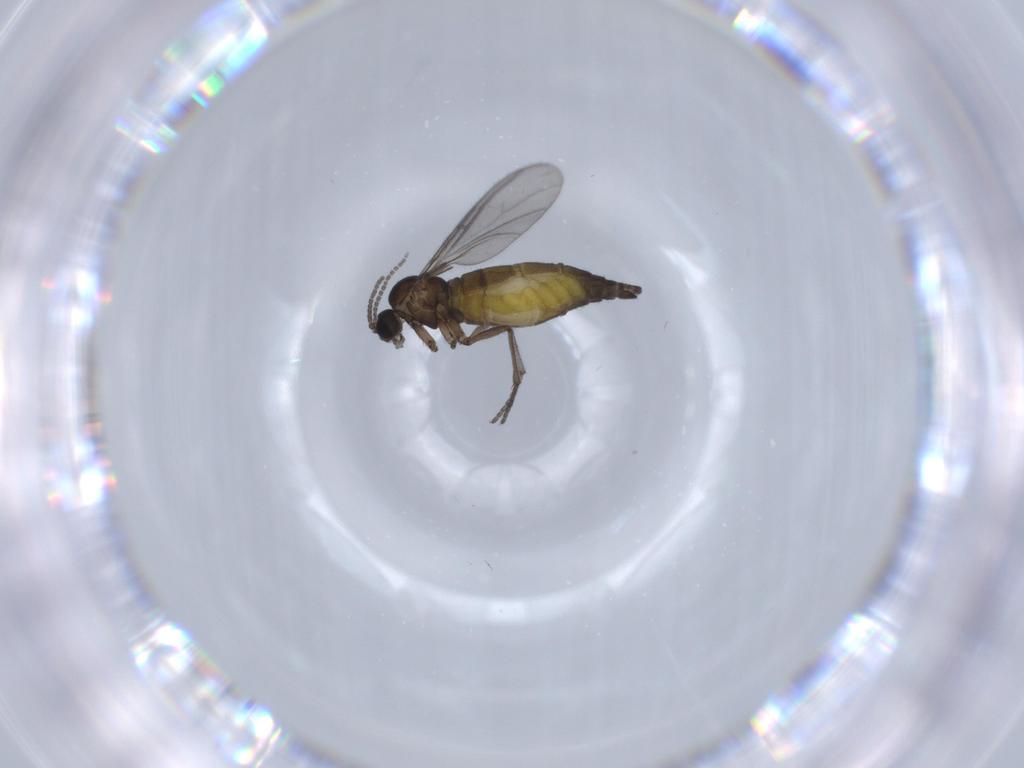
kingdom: Animalia
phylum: Arthropoda
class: Insecta
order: Diptera
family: Sciaridae
